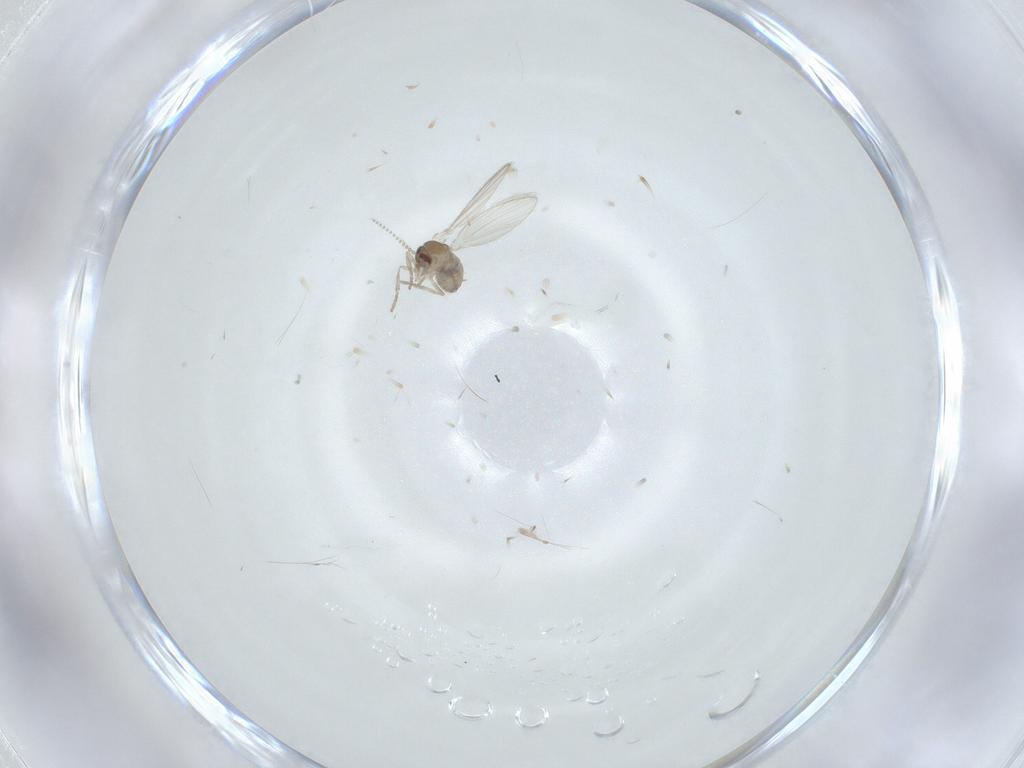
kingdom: Animalia
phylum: Arthropoda
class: Insecta
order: Diptera
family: Psychodidae
